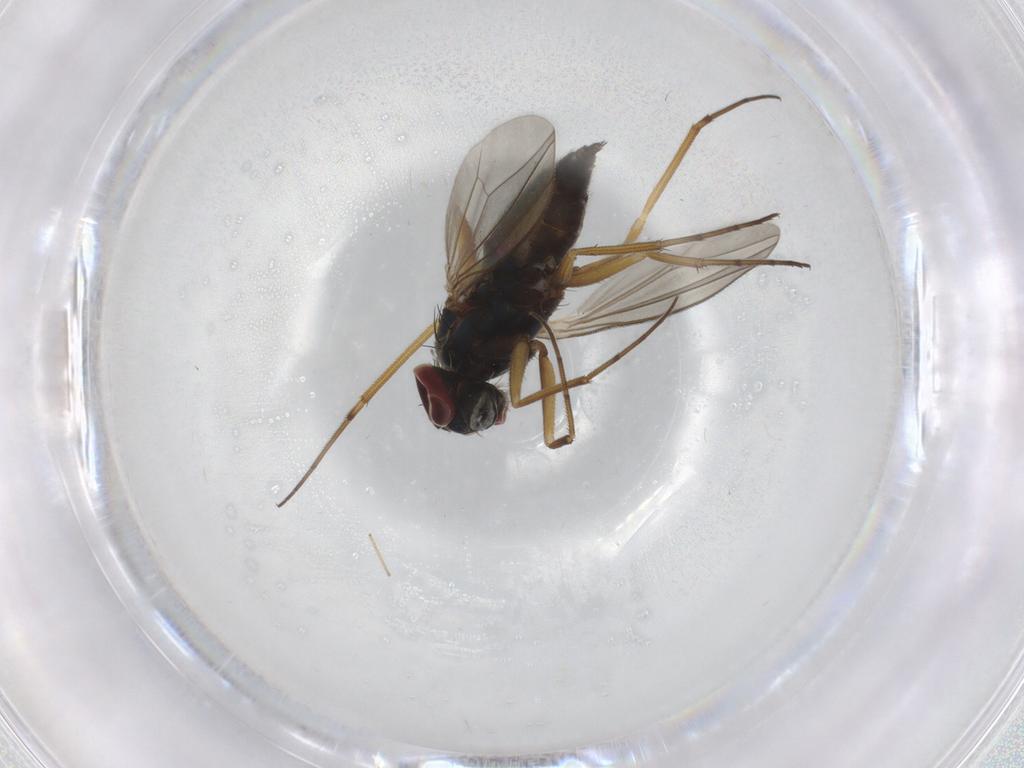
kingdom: Animalia
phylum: Arthropoda
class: Insecta
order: Diptera
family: Dolichopodidae
